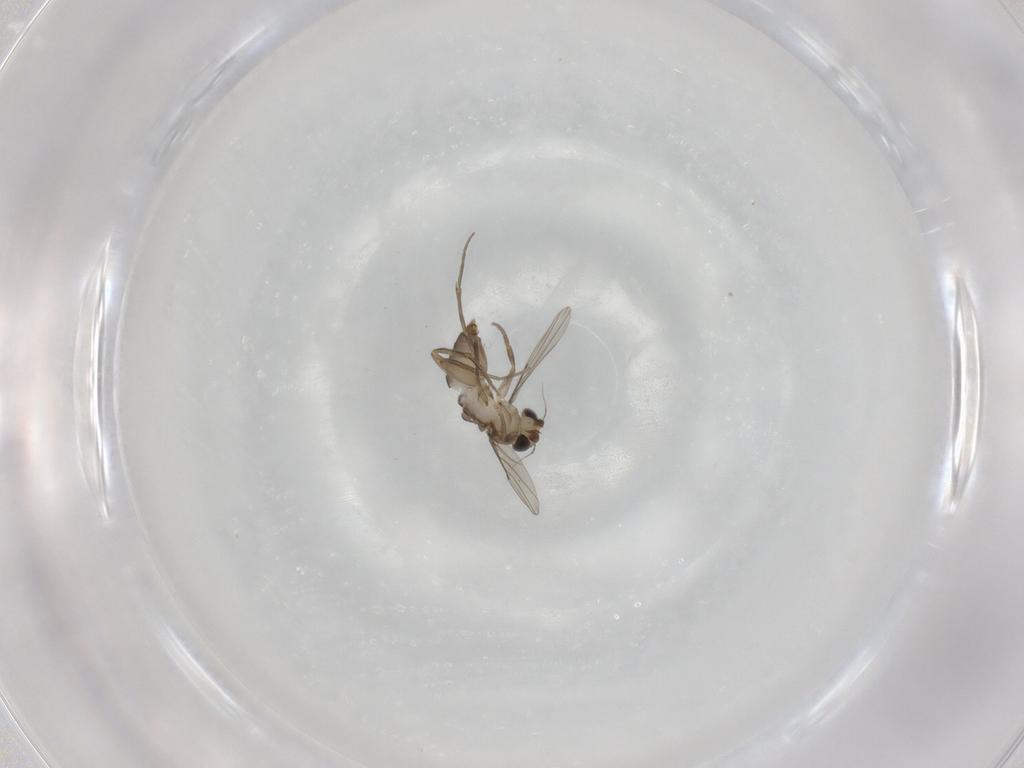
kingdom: Animalia
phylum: Arthropoda
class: Insecta
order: Diptera
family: Phoridae
